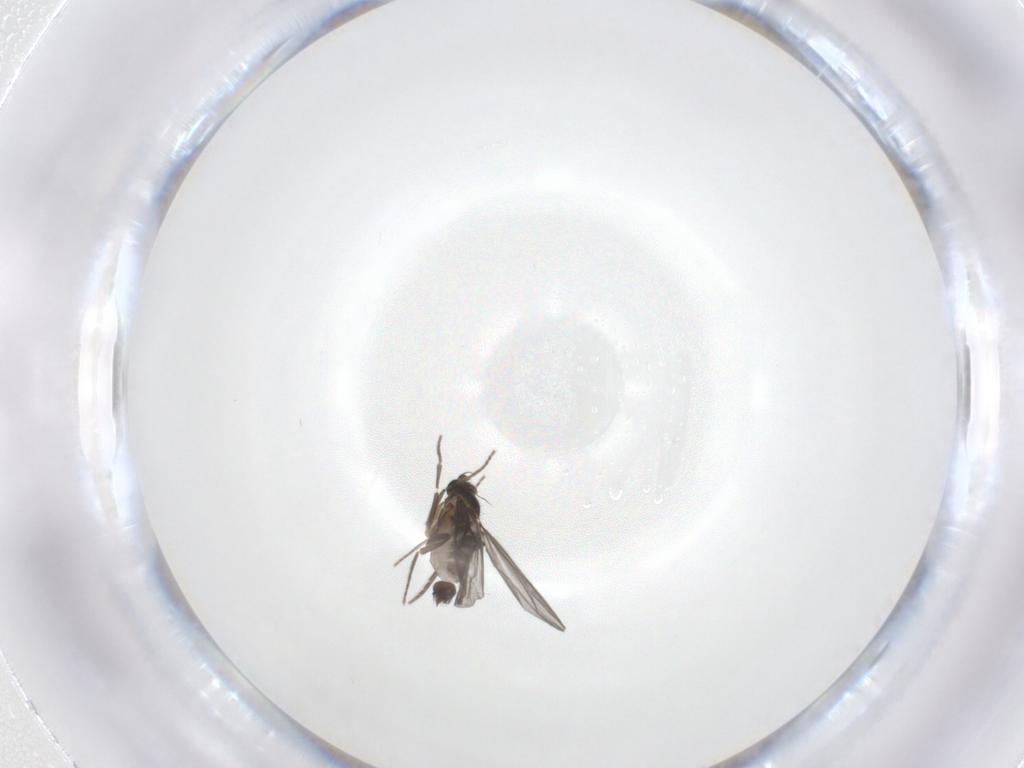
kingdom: Animalia
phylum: Arthropoda
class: Insecta
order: Diptera
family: Phoridae
